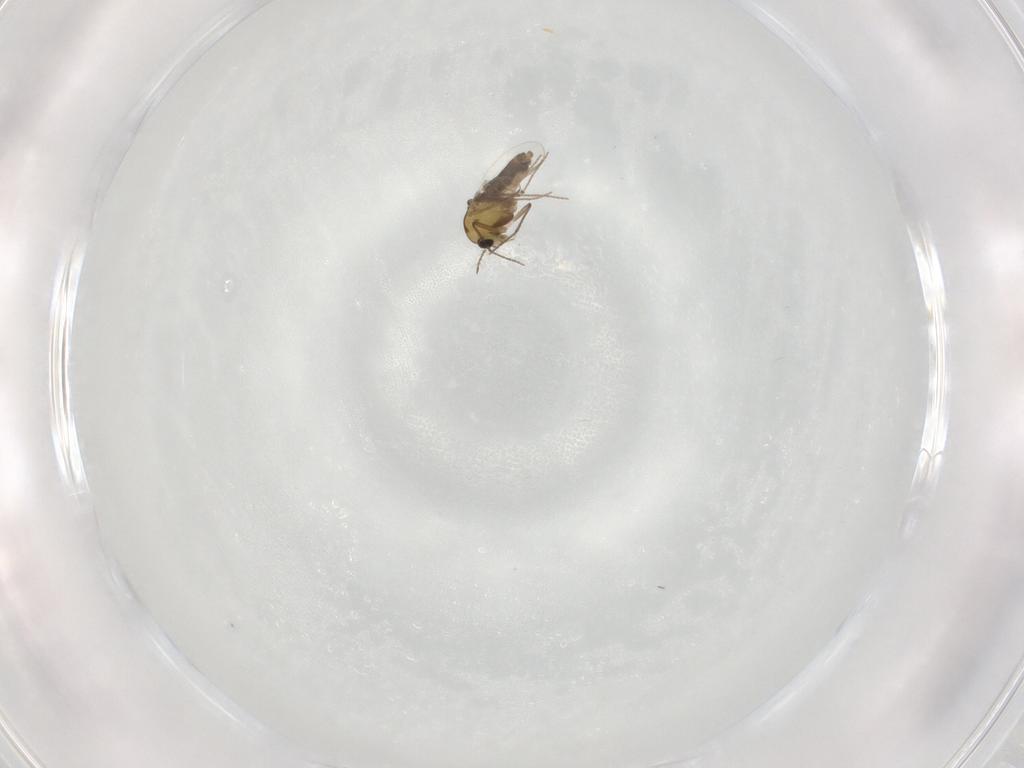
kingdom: Animalia
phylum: Arthropoda
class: Insecta
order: Diptera
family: Chironomidae
